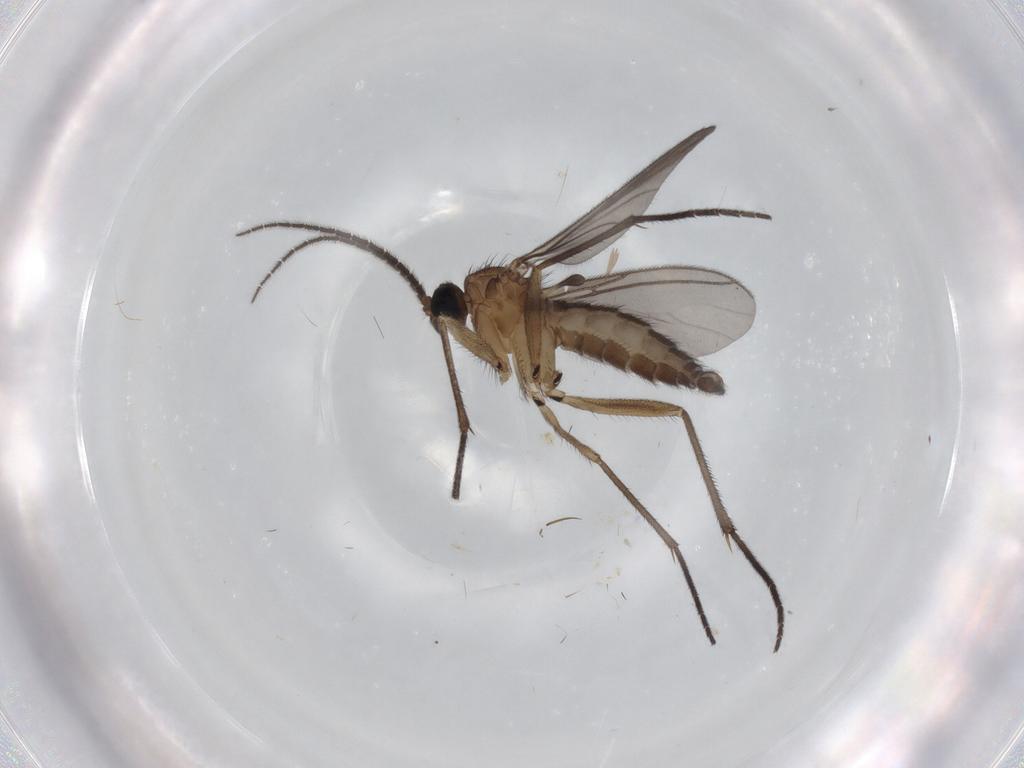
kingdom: Animalia
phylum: Arthropoda
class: Insecta
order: Diptera
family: Sciaridae
